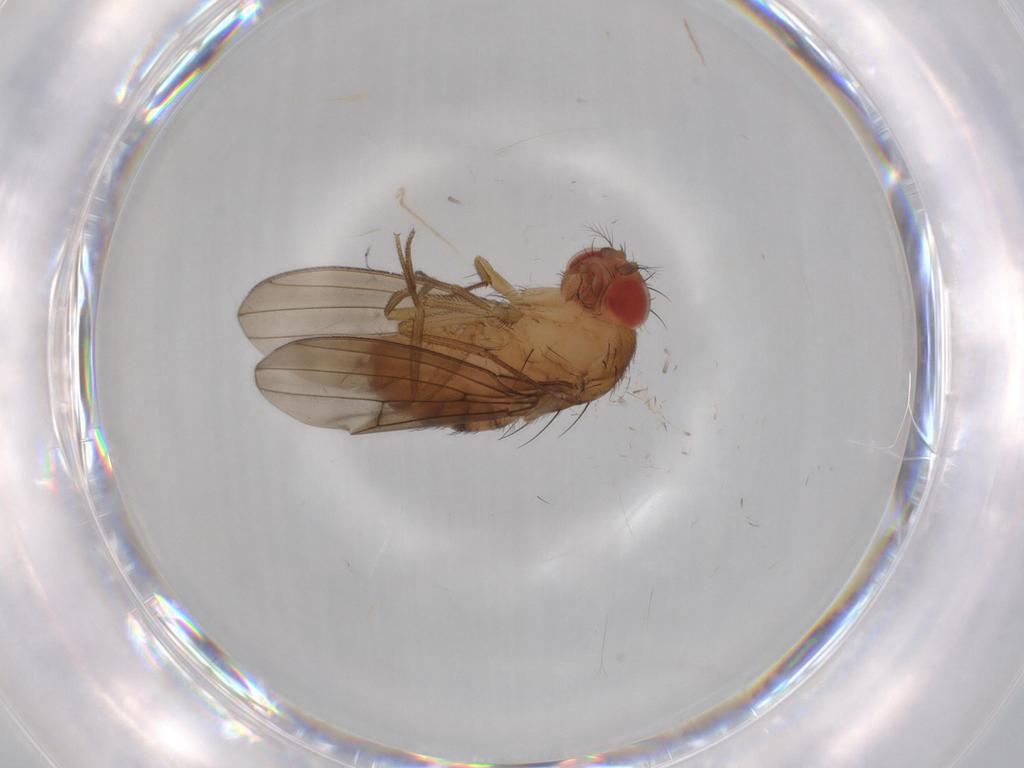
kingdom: Animalia
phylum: Arthropoda
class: Insecta
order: Diptera
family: Drosophilidae
